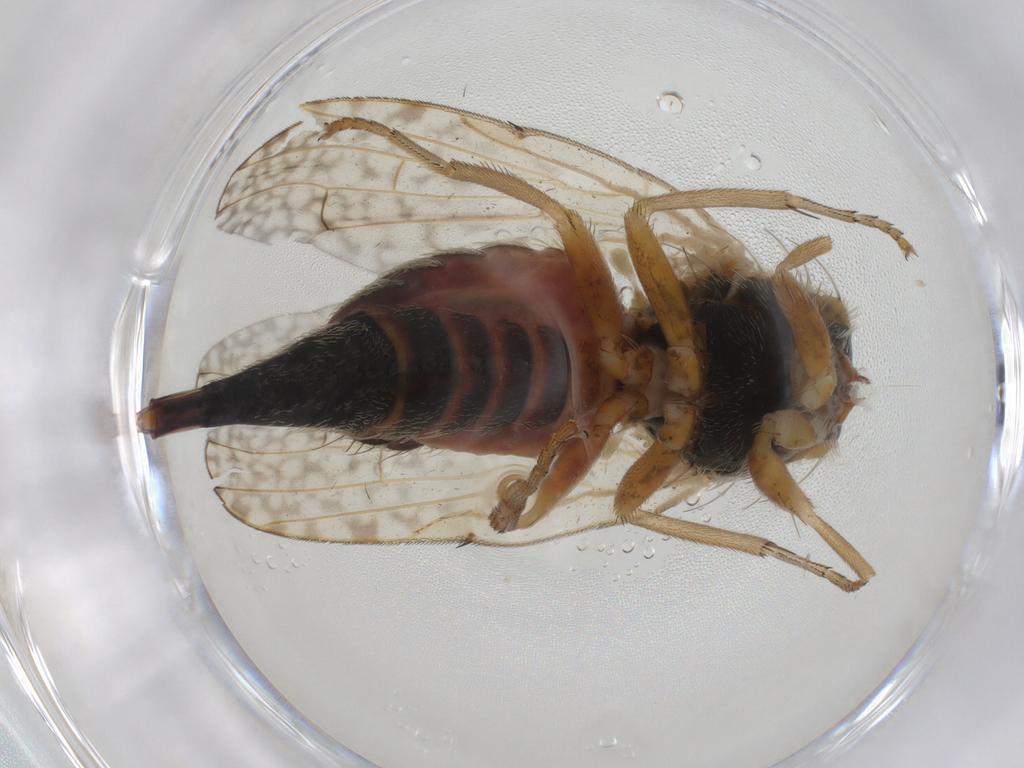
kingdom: Animalia
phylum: Arthropoda
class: Insecta
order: Diptera
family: Tephritidae
